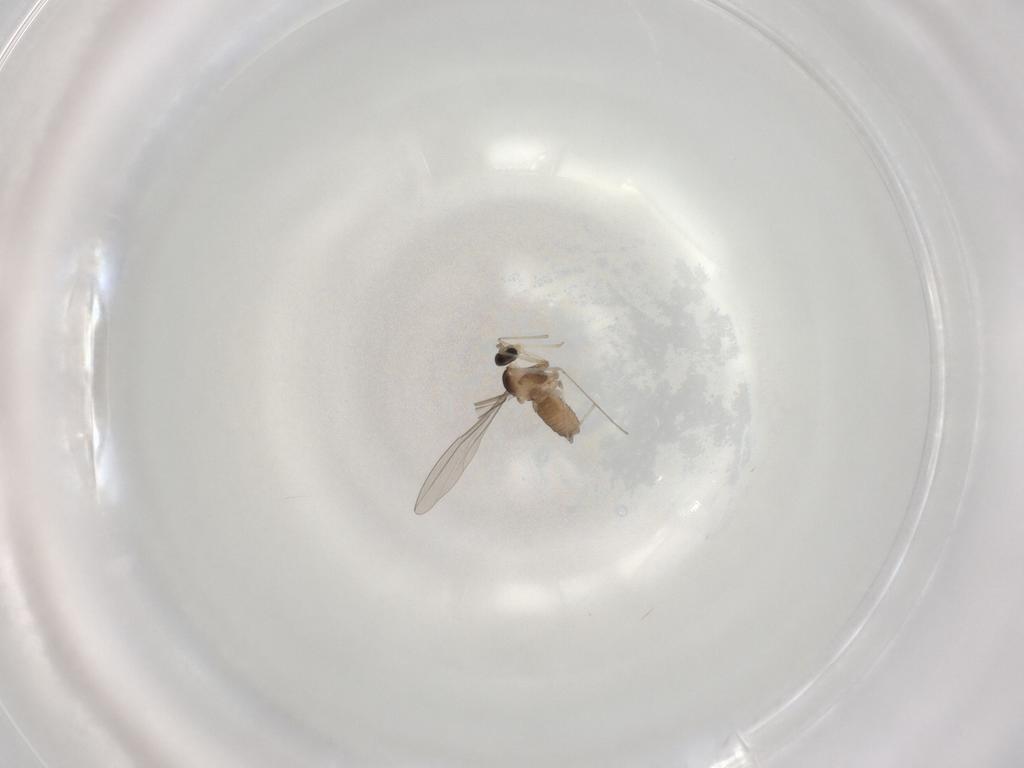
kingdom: Animalia
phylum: Arthropoda
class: Insecta
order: Diptera
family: Cecidomyiidae
